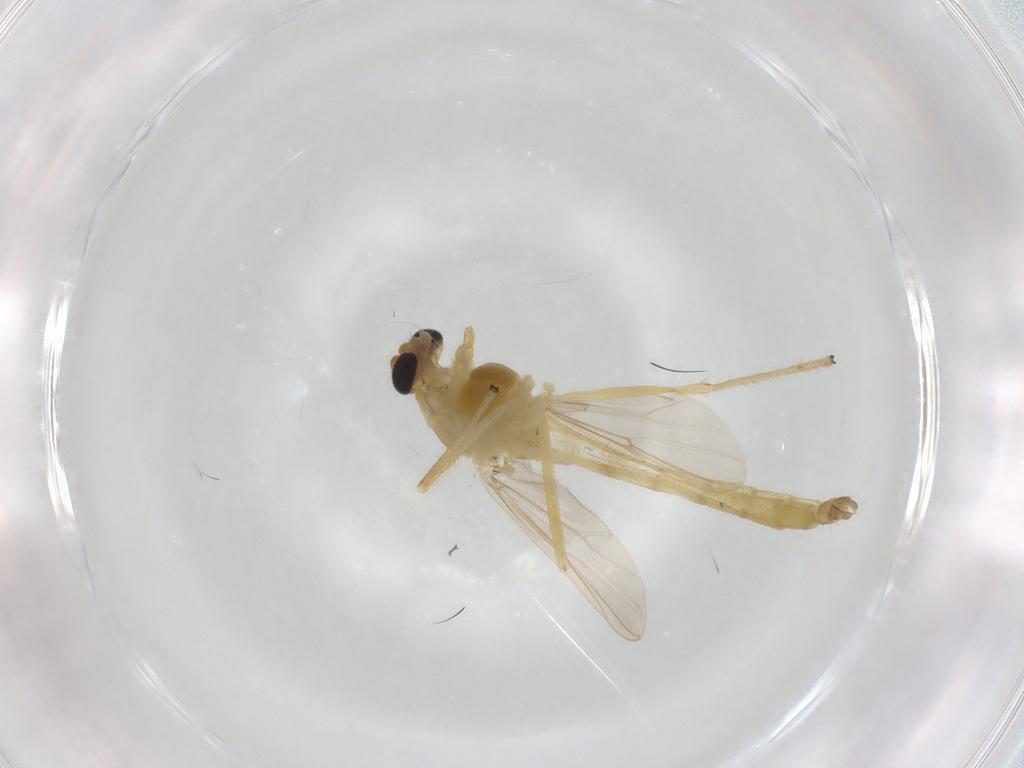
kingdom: Animalia
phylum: Arthropoda
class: Insecta
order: Diptera
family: Chironomidae
